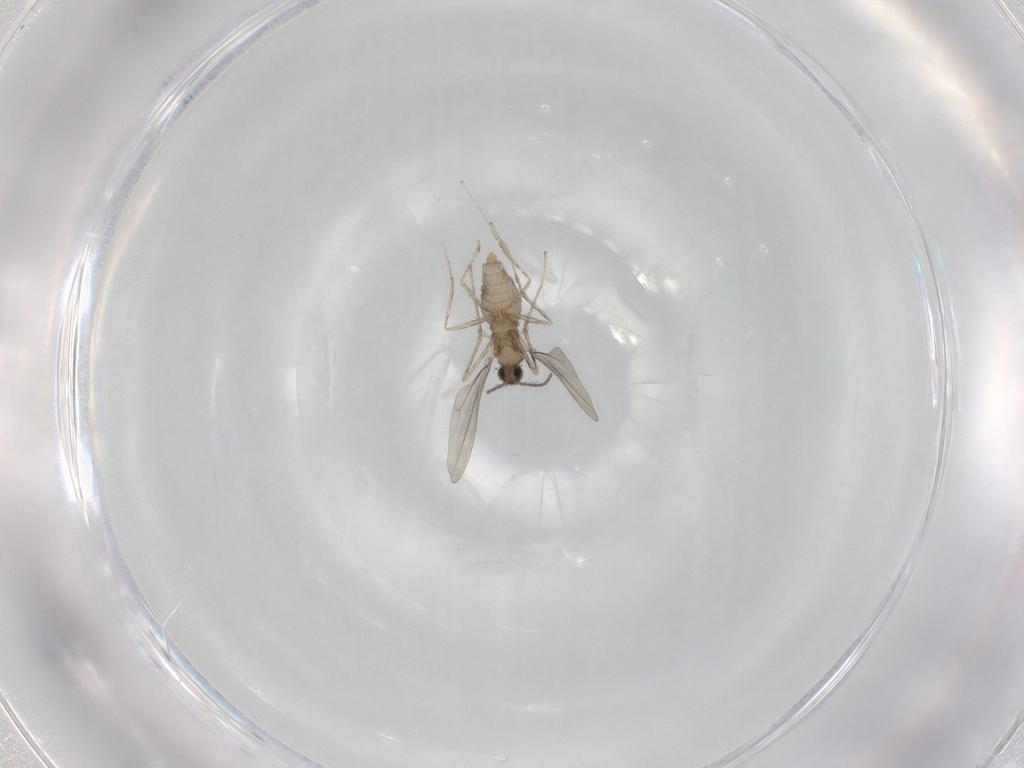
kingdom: Animalia
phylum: Arthropoda
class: Insecta
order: Diptera
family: Cecidomyiidae
